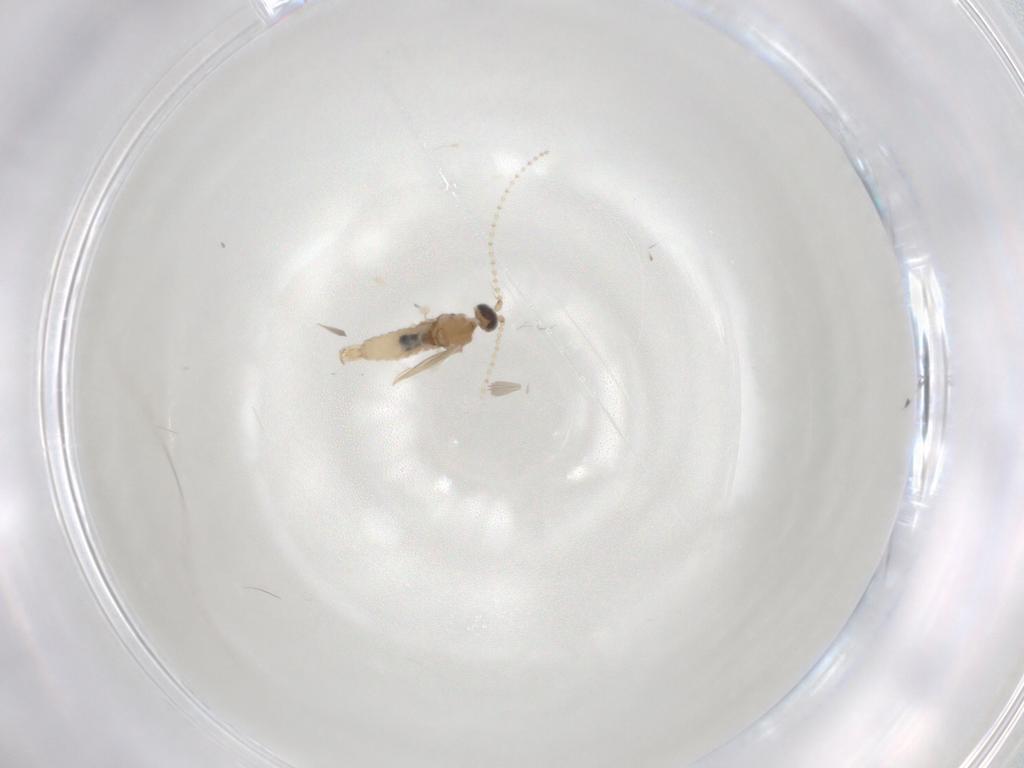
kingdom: Animalia
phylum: Arthropoda
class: Insecta
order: Diptera
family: Cecidomyiidae
